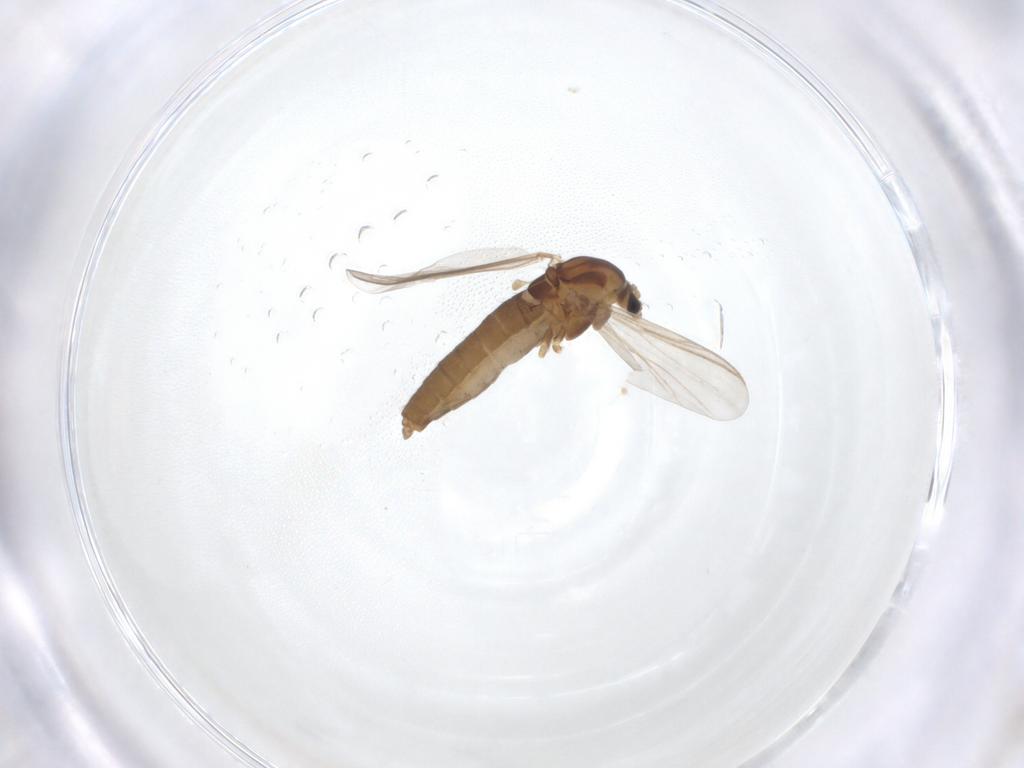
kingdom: Animalia
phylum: Arthropoda
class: Insecta
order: Diptera
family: Chironomidae
